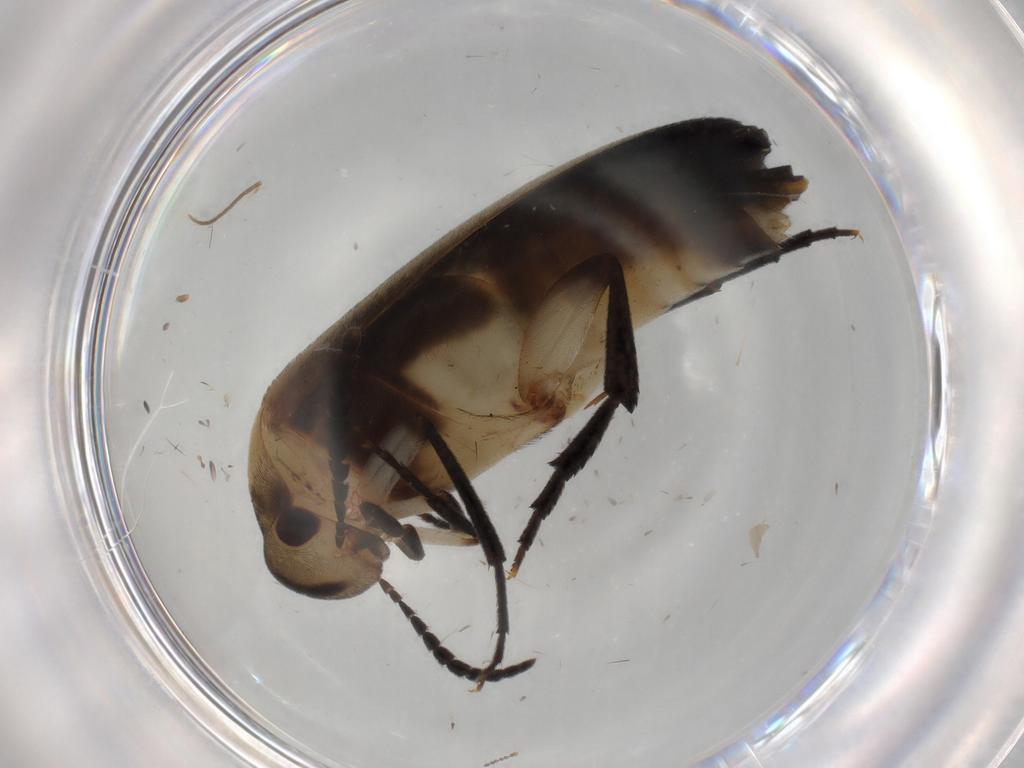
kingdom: Animalia
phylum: Arthropoda
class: Insecta
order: Coleoptera
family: Mordellidae
